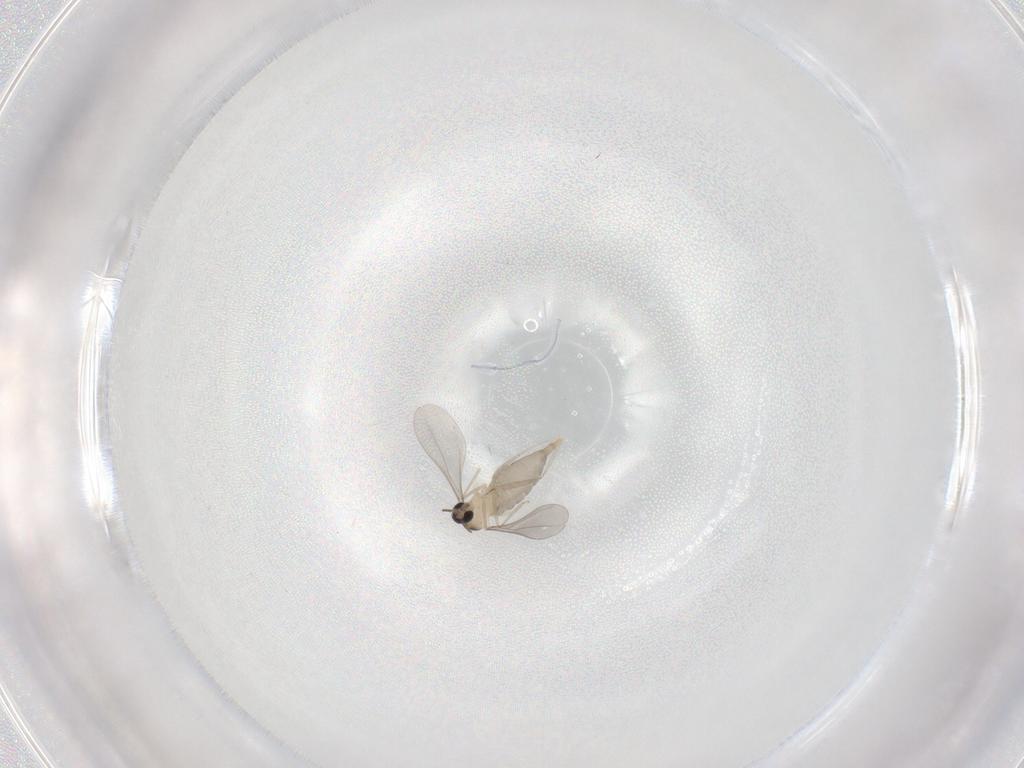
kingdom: Animalia
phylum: Arthropoda
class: Insecta
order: Diptera
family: Cecidomyiidae
